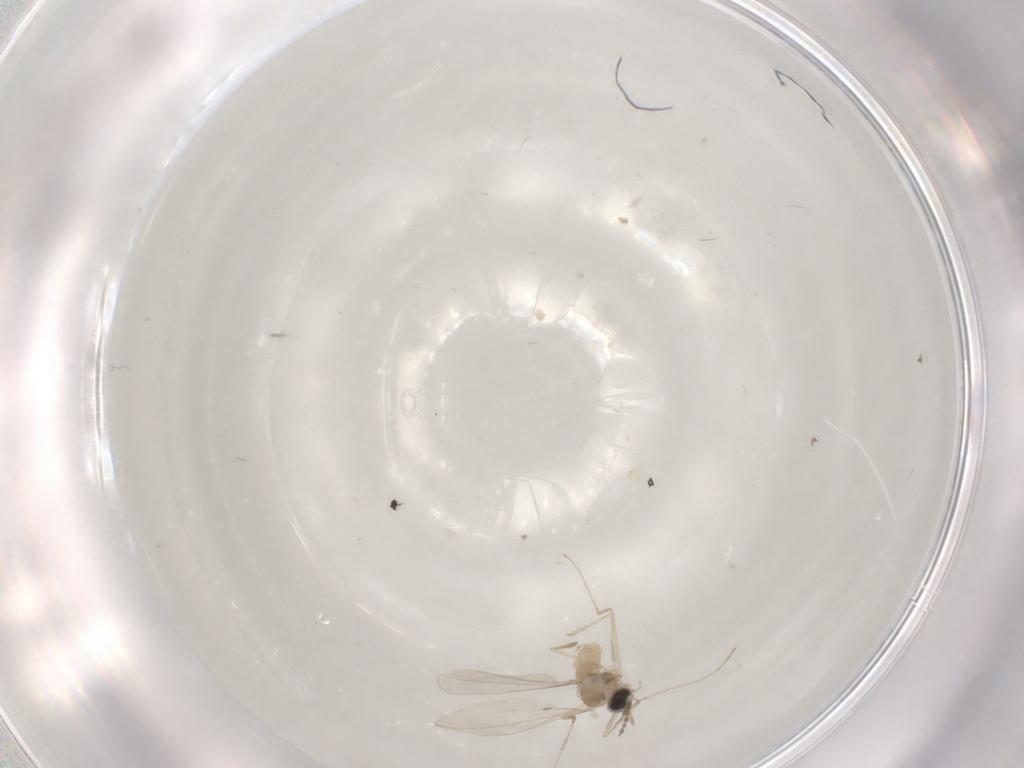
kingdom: Animalia
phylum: Arthropoda
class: Insecta
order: Diptera
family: Cecidomyiidae
